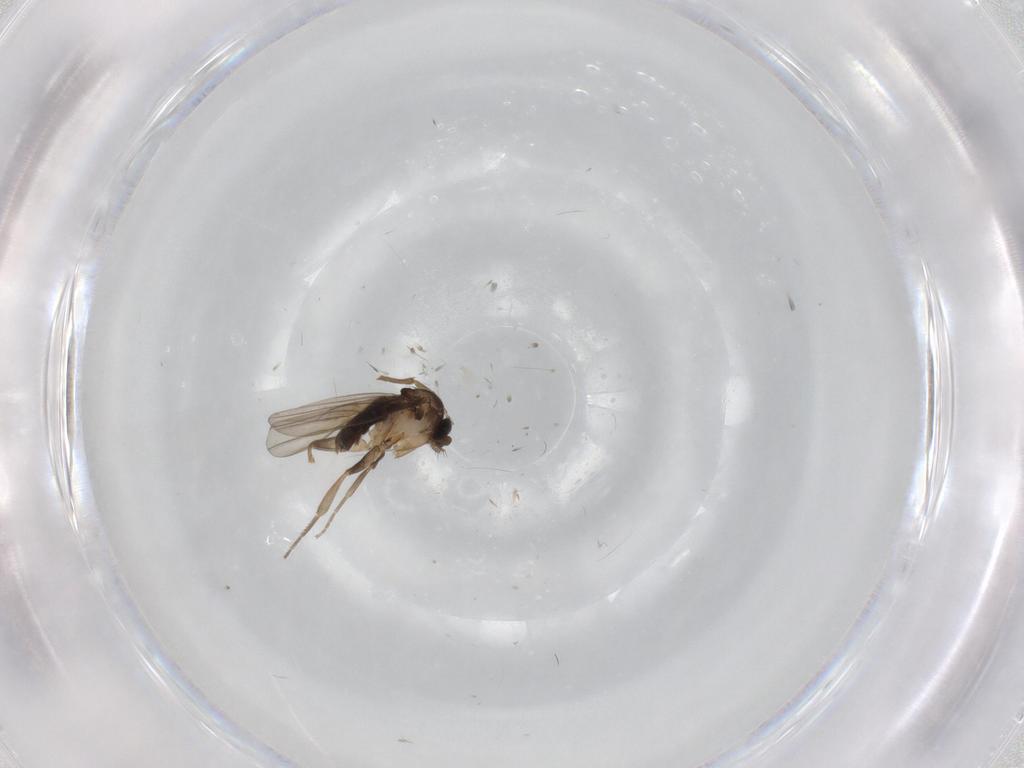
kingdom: Animalia
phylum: Arthropoda
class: Insecta
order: Diptera
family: Phoridae
